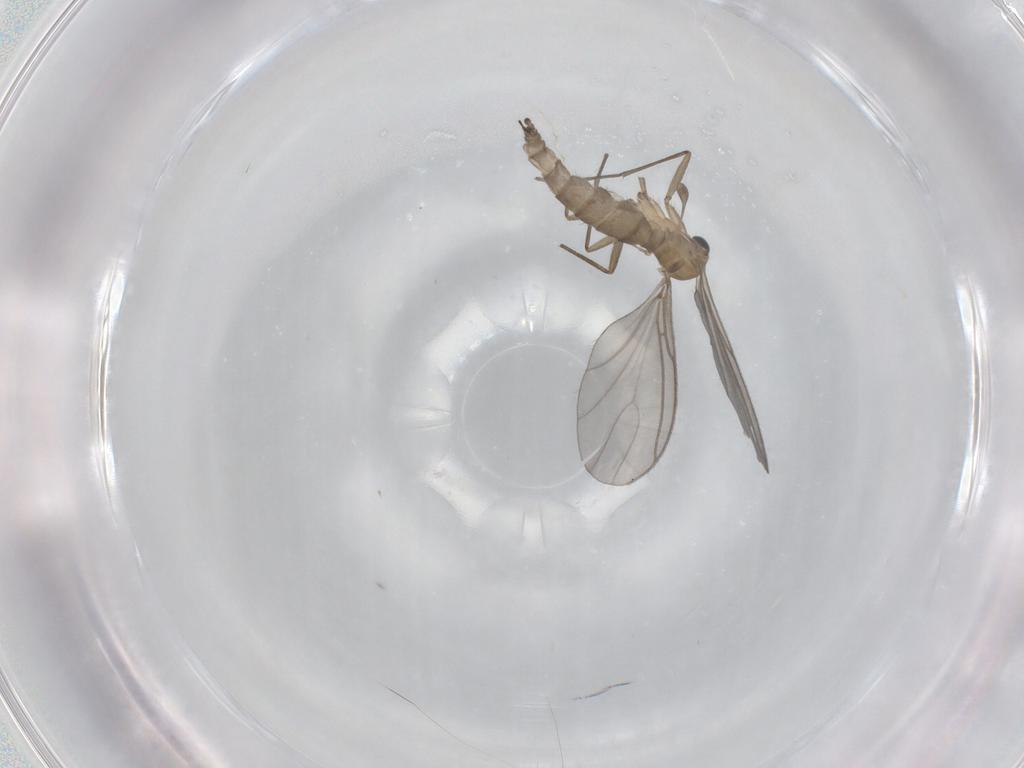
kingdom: Animalia
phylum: Arthropoda
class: Insecta
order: Diptera
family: Sciaridae
